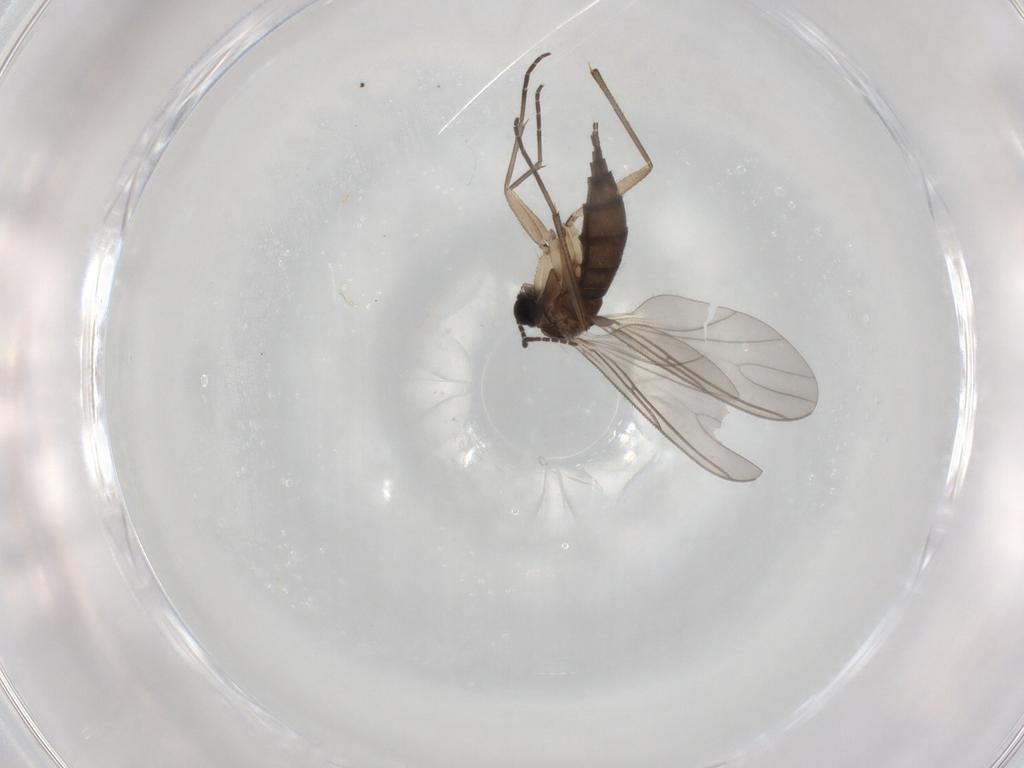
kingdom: Animalia
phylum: Arthropoda
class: Insecta
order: Diptera
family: Sciaridae
